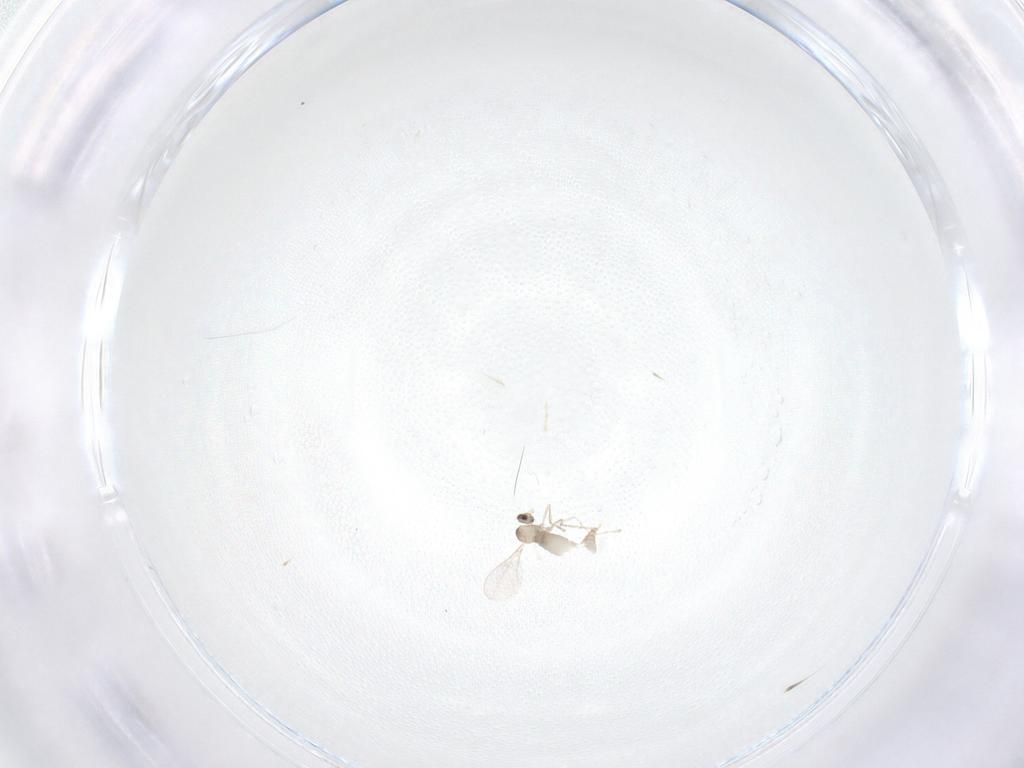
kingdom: Animalia
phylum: Arthropoda
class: Insecta
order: Diptera
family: Cecidomyiidae
